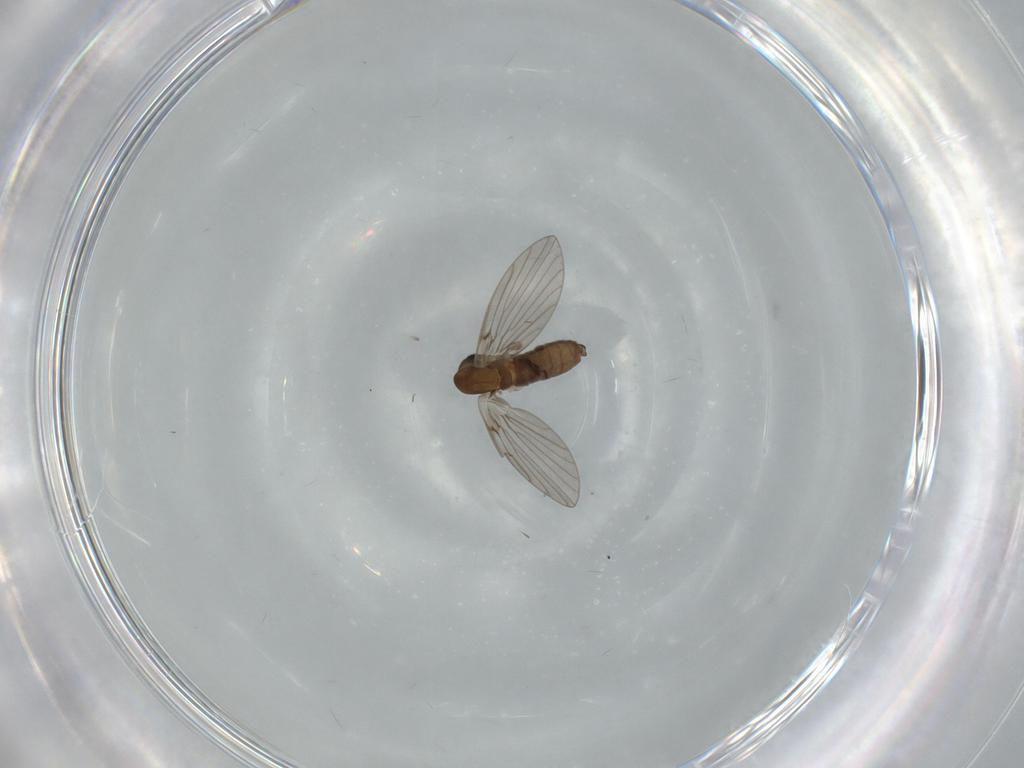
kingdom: Animalia
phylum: Arthropoda
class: Insecta
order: Diptera
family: Psychodidae
